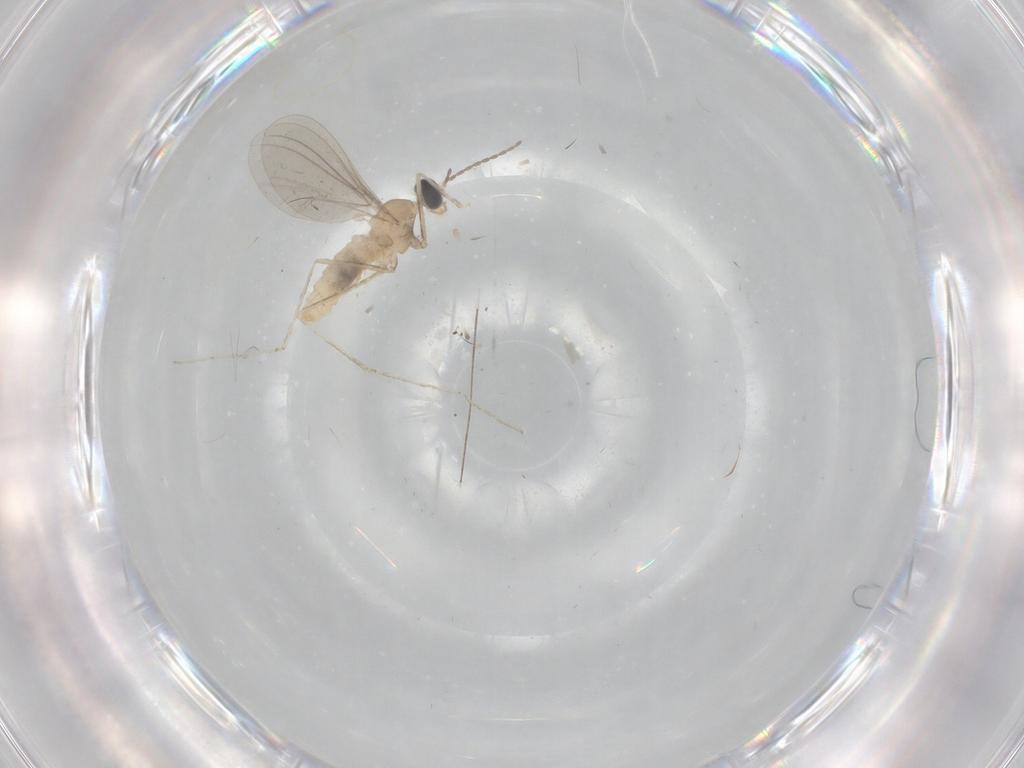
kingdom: Animalia
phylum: Arthropoda
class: Insecta
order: Diptera
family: Cecidomyiidae
